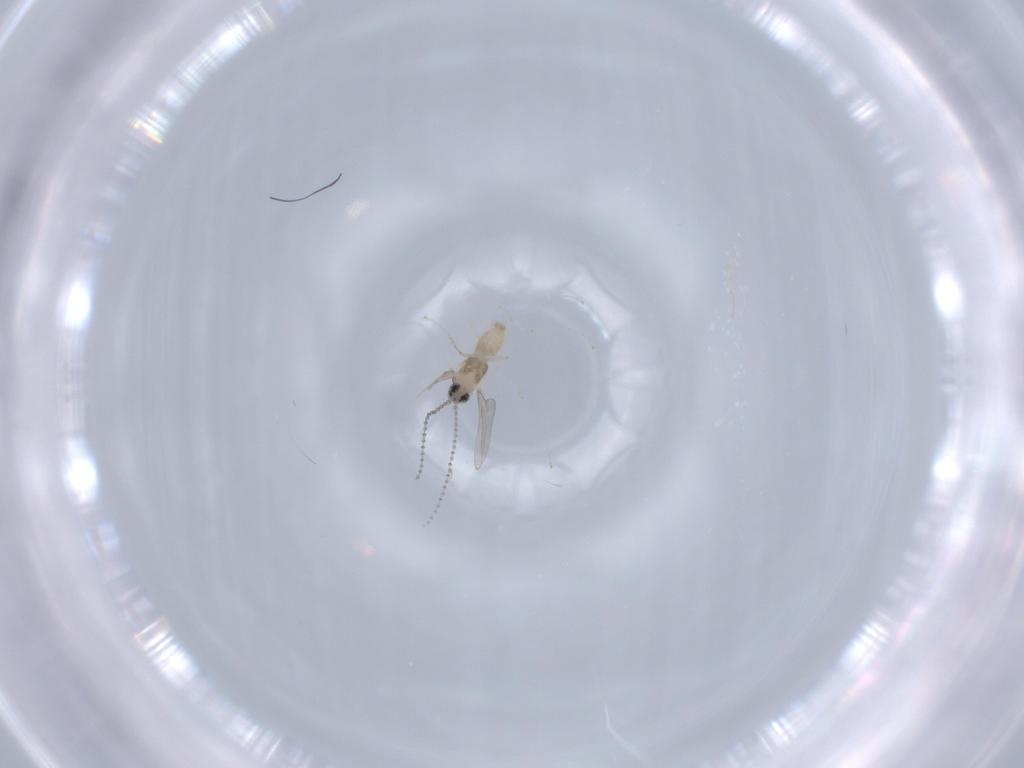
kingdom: Animalia
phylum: Arthropoda
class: Insecta
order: Diptera
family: Cecidomyiidae
